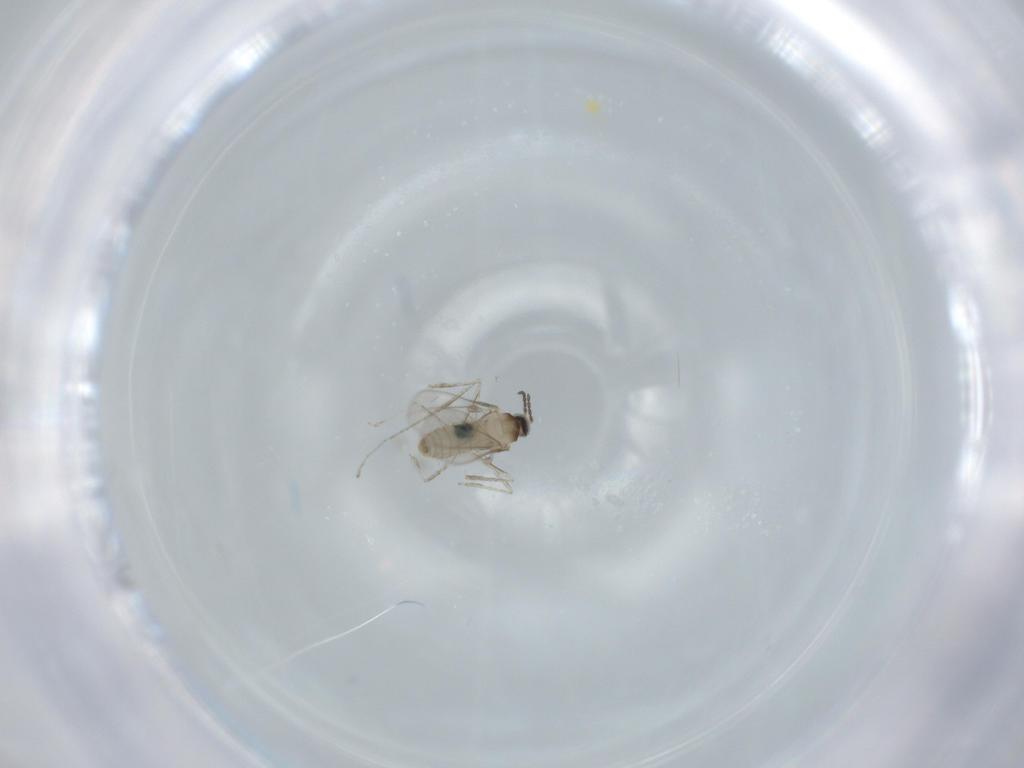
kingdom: Animalia
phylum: Arthropoda
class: Insecta
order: Diptera
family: Cecidomyiidae
